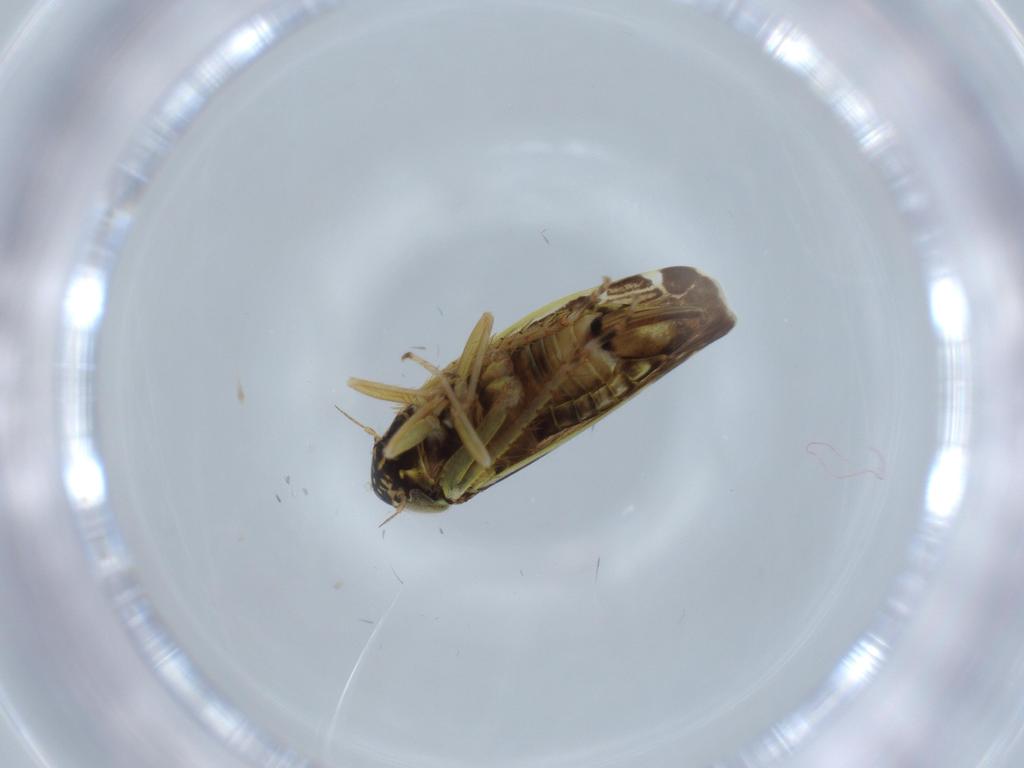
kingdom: Animalia
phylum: Arthropoda
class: Insecta
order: Hemiptera
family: Cicadellidae
